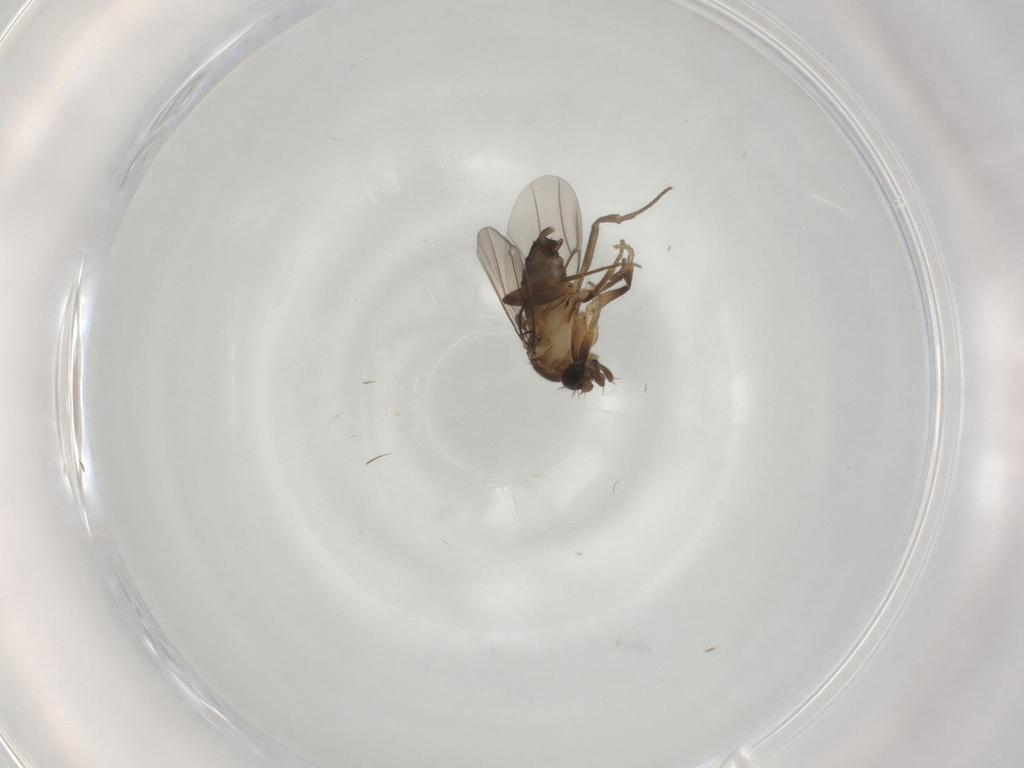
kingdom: Animalia
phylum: Arthropoda
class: Insecta
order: Diptera
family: Phoridae
